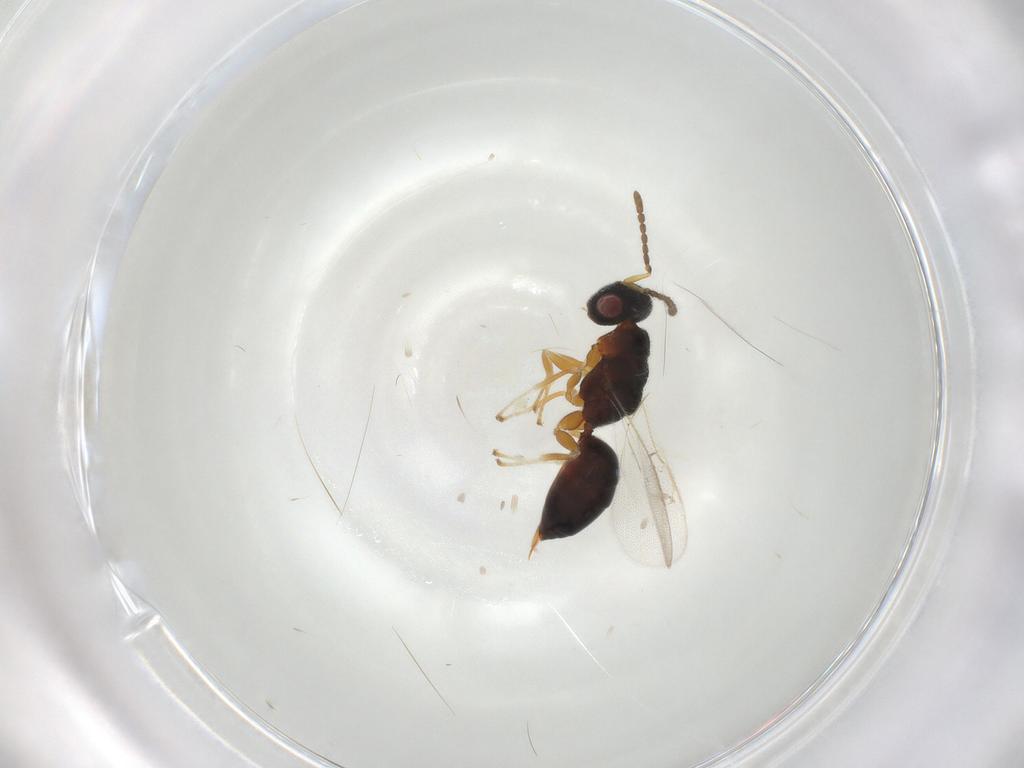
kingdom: Animalia
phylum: Arthropoda
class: Insecta
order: Hymenoptera
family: Eurytomidae
